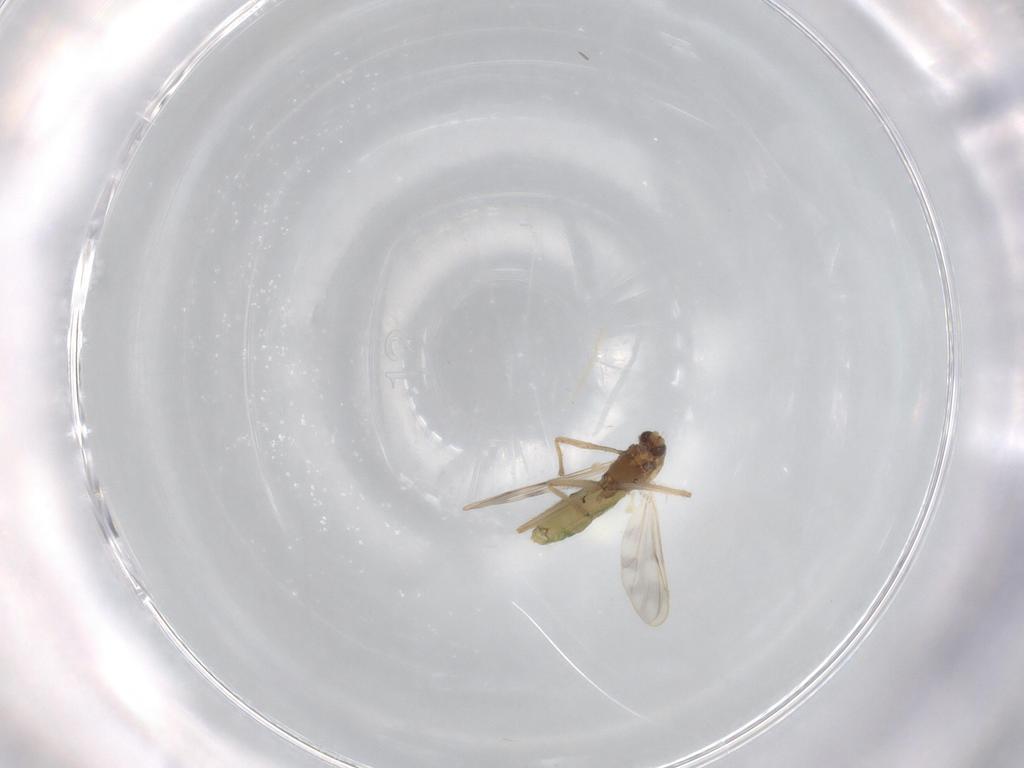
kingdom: Animalia
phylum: Arthropoda
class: Insecta
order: Diptera
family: Chironomidae
